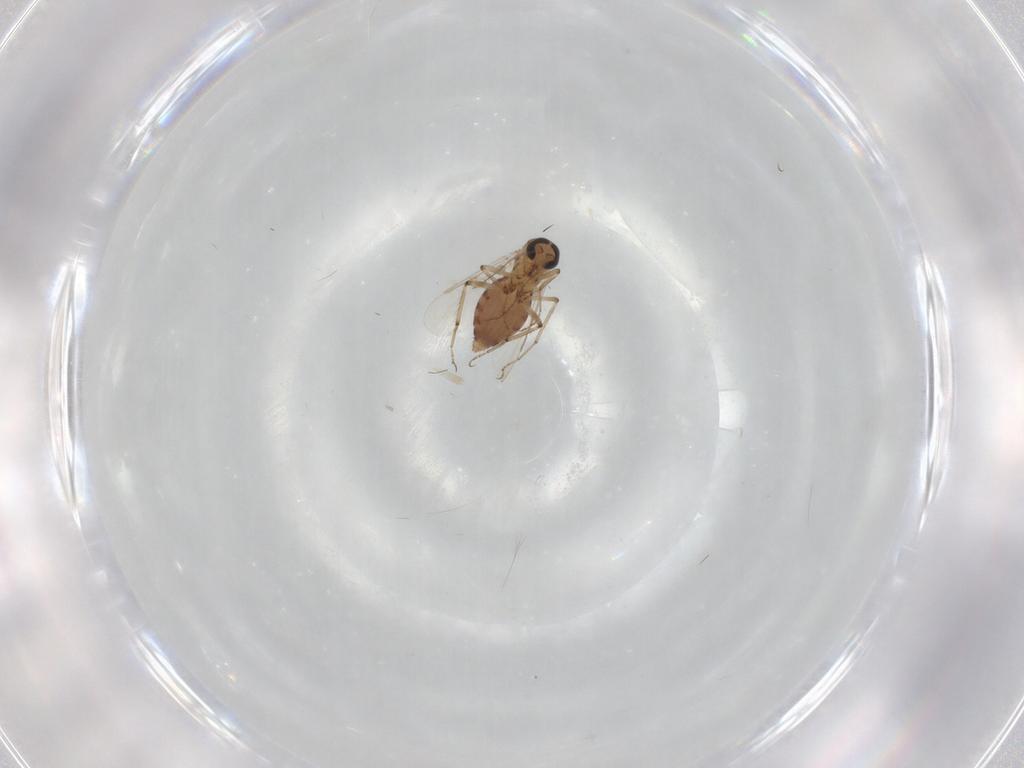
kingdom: Animalia
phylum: Arthropoda
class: Insecta
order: Diptera
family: Ceratopogonidae
